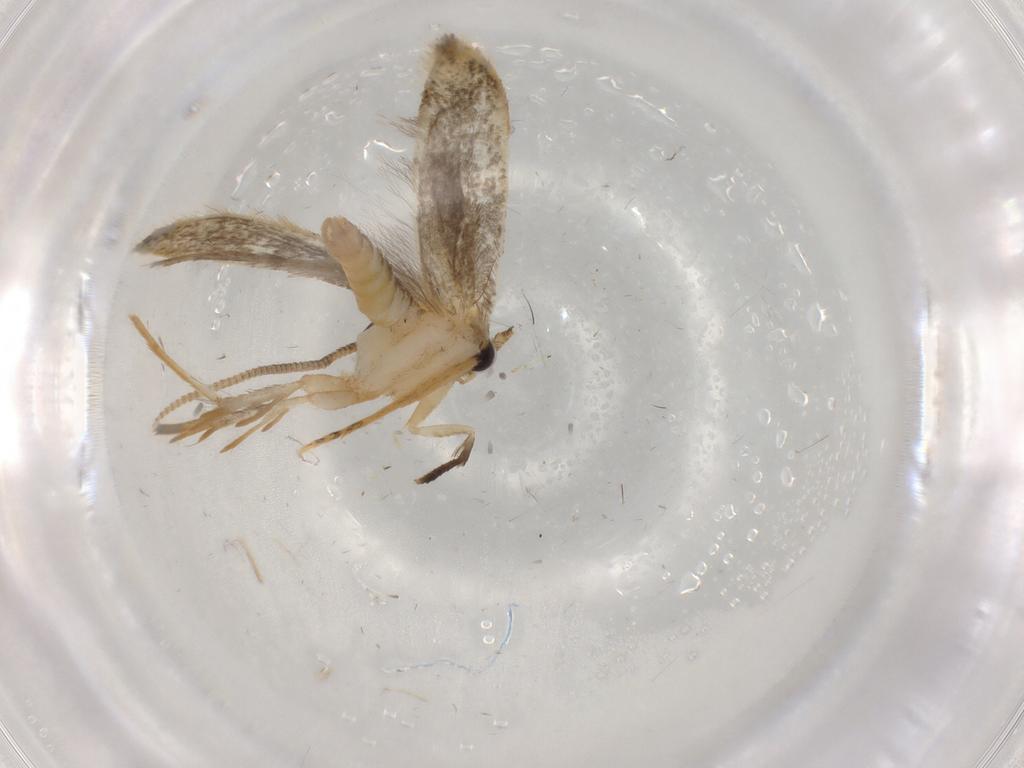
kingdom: Animalia
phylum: Arthropoda
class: Insecta
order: Lepidoptera
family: Tineidae
